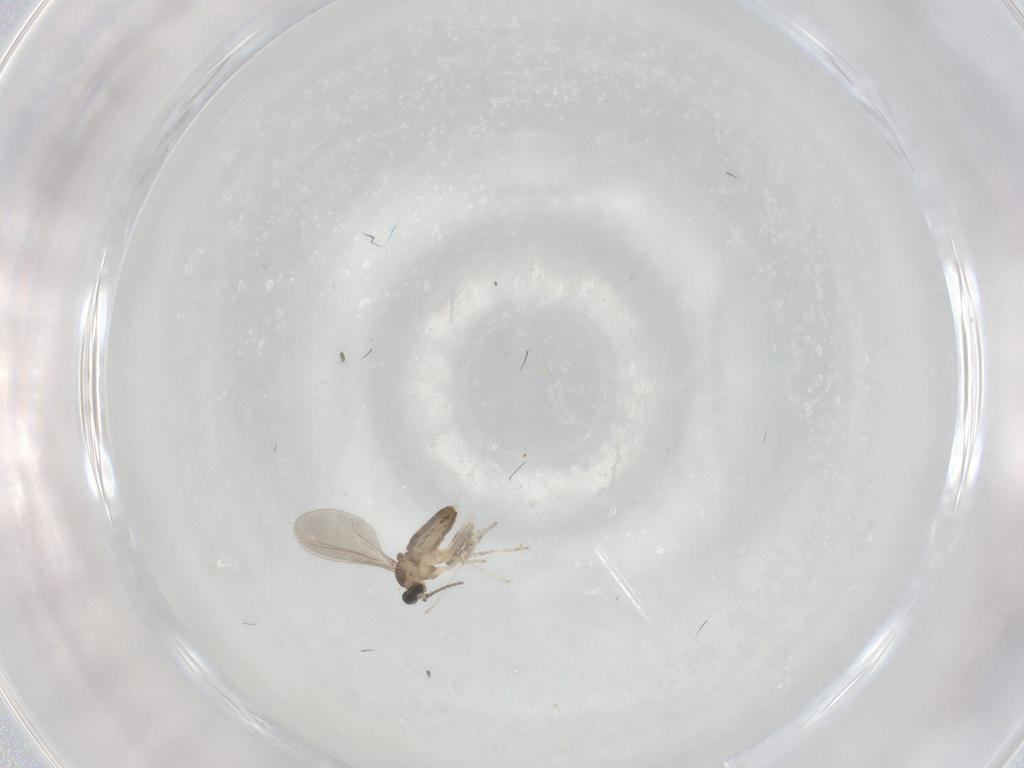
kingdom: Animalia
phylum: Arthropoda
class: Insecta
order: Diptera
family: Cecidomyiidae
